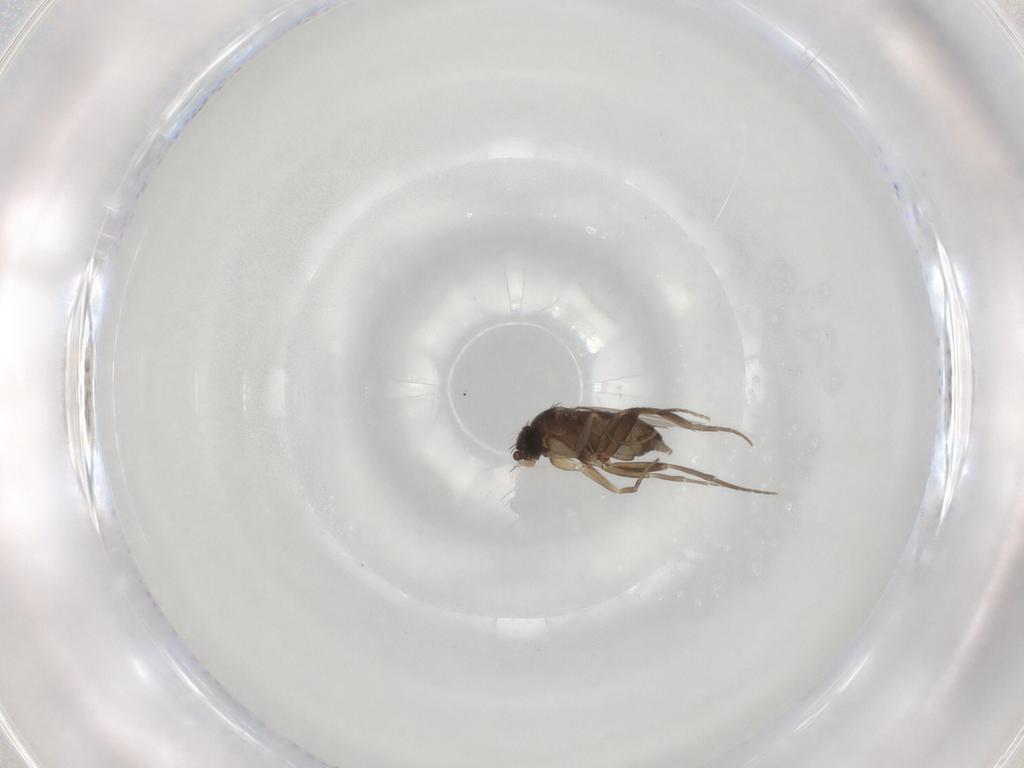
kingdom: Animalia
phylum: Arthropoda
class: Insecta
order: Diptera
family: Phoridae
